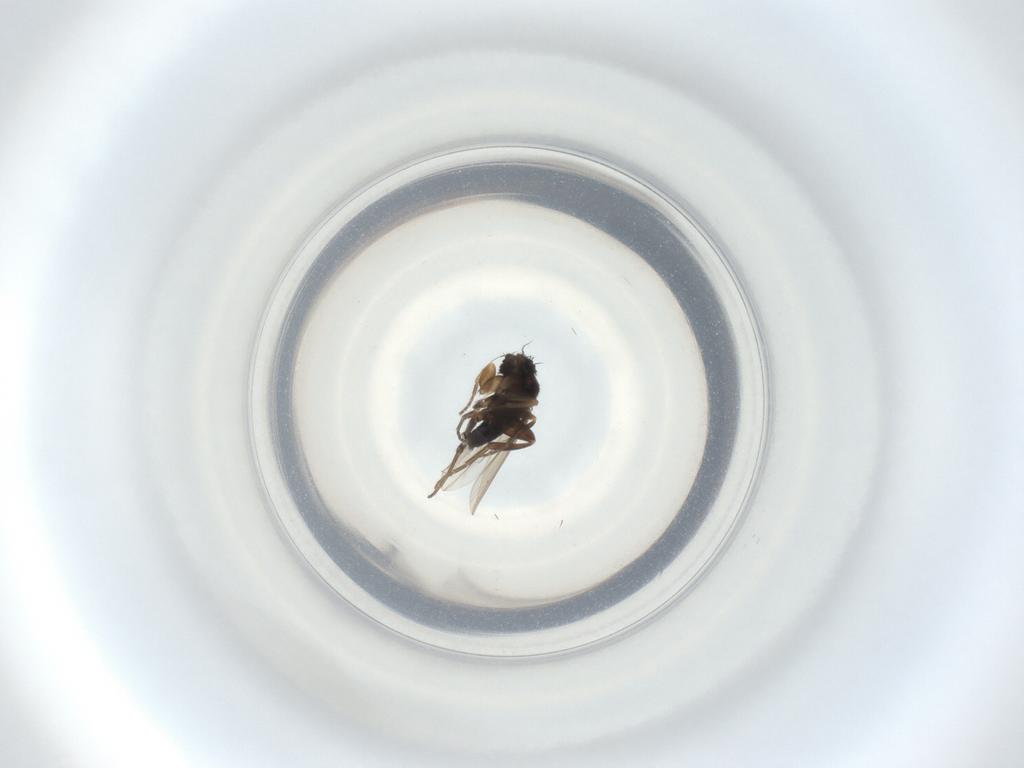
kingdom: Animalia
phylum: Arthropoda
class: Insecta
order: Diptera
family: Phoridae
